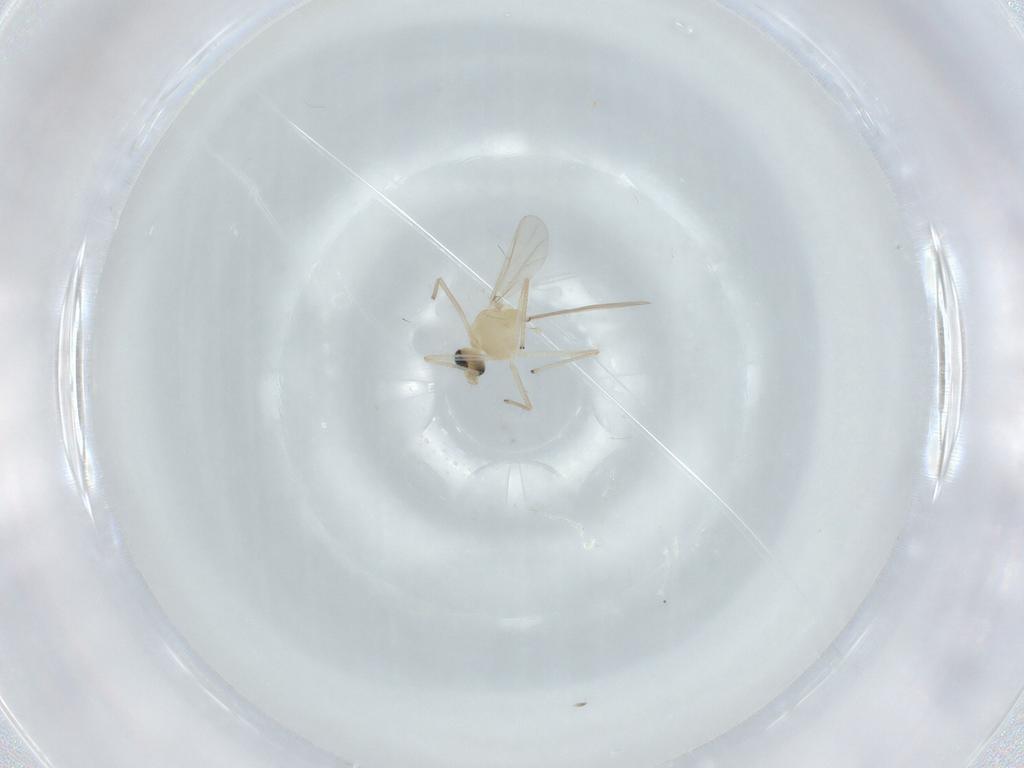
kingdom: Animalia
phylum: Arthropoda
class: Insecta
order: Diptera
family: Chironomidae
